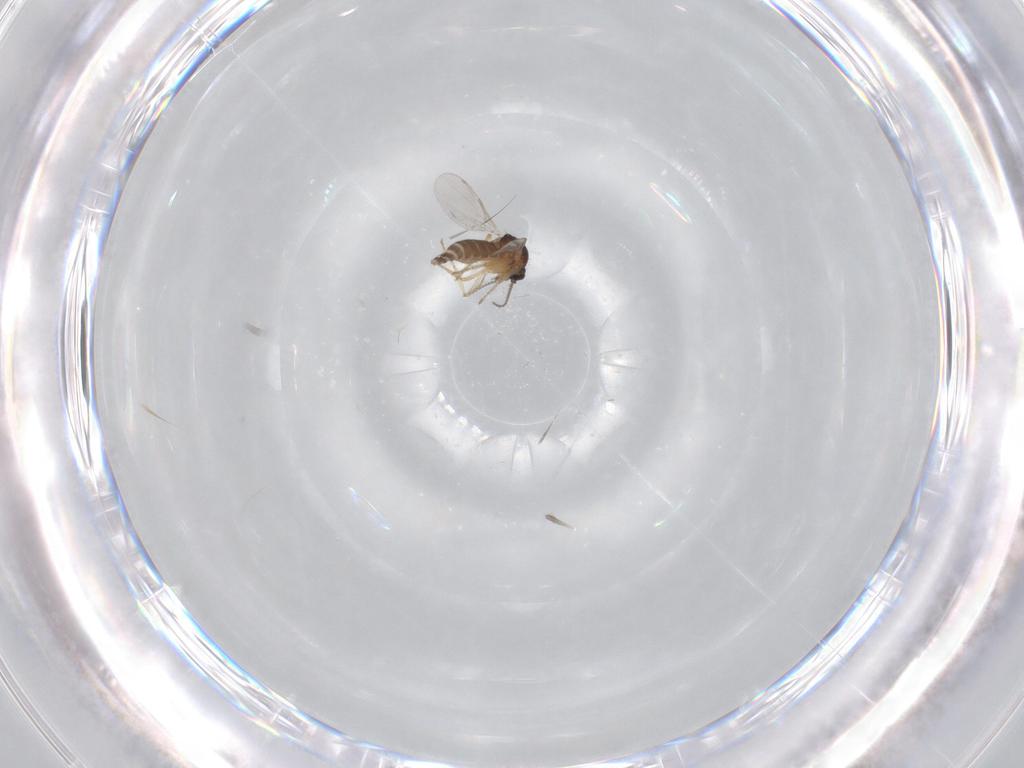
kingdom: Animalia
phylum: Arthropoda
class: Insecta
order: Diptera
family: Ceratopogonidae
